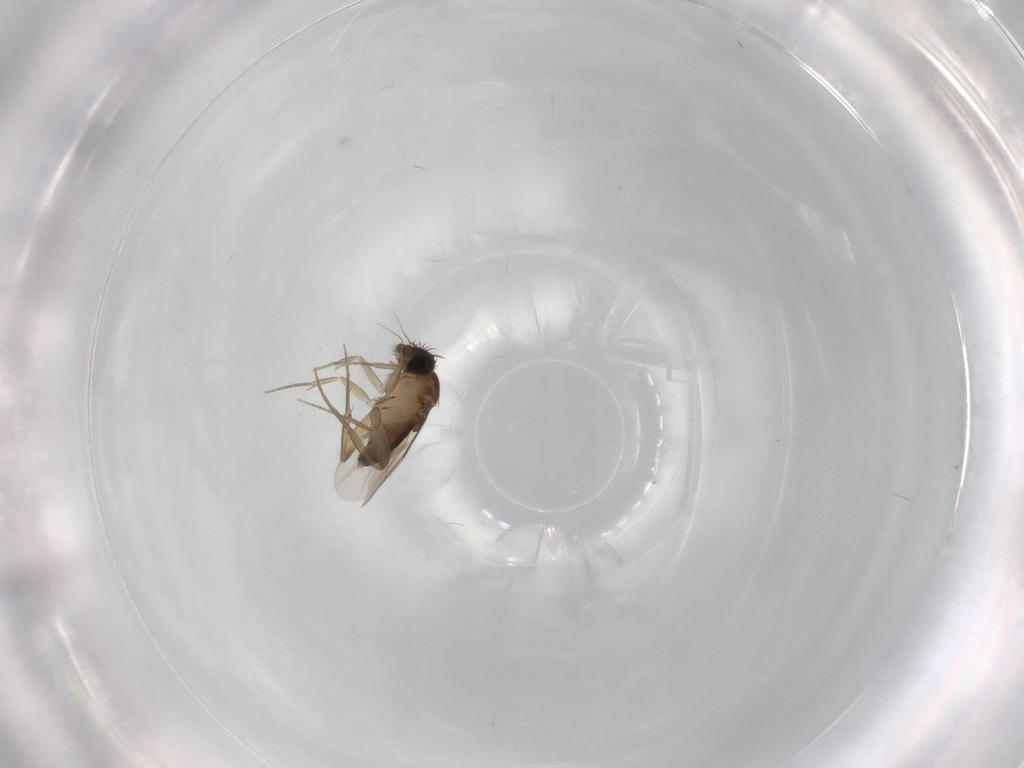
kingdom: Animalia
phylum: Arthropoda
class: Insecta
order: Diptera
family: Phoridae
